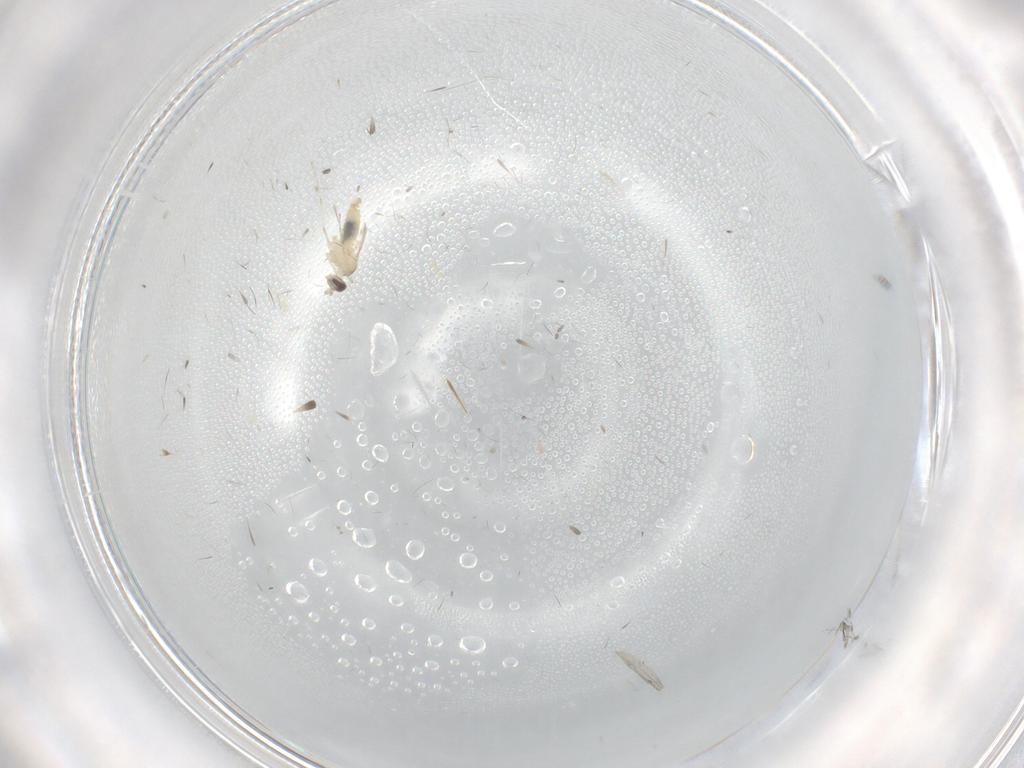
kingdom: Animalia
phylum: Arthropoda
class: Insecta
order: Diptera
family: Cecidomyiidae
